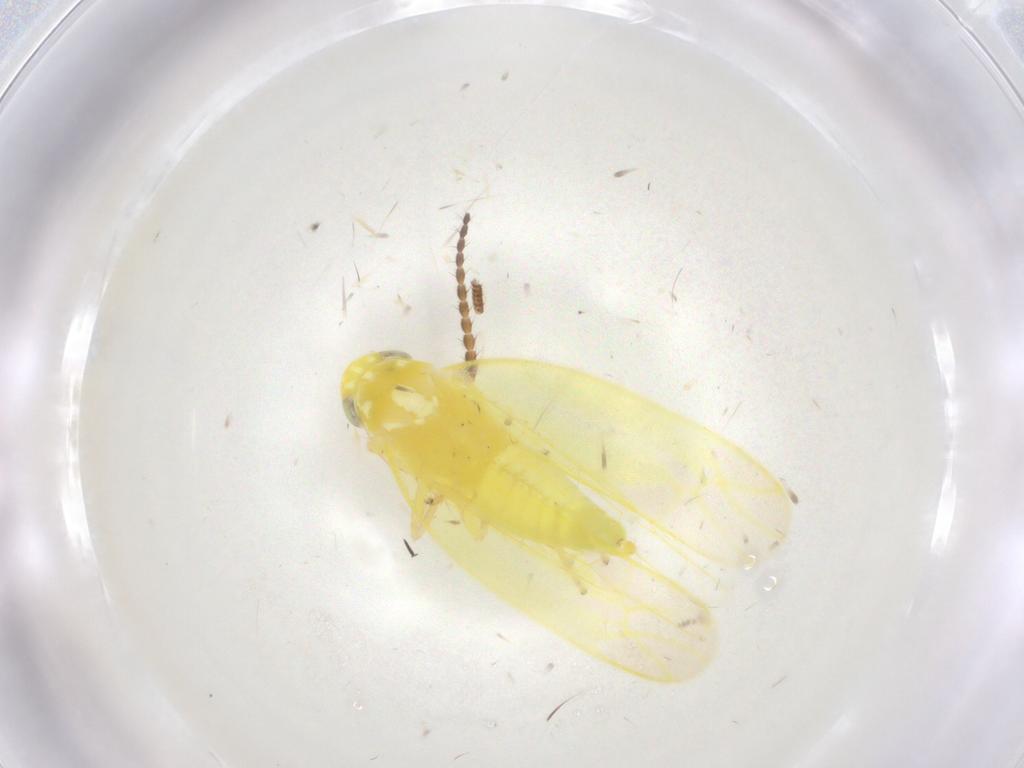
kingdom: Animalia
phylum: Arthropoda
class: Insecta
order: Hemiptera
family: Cicadellidae
